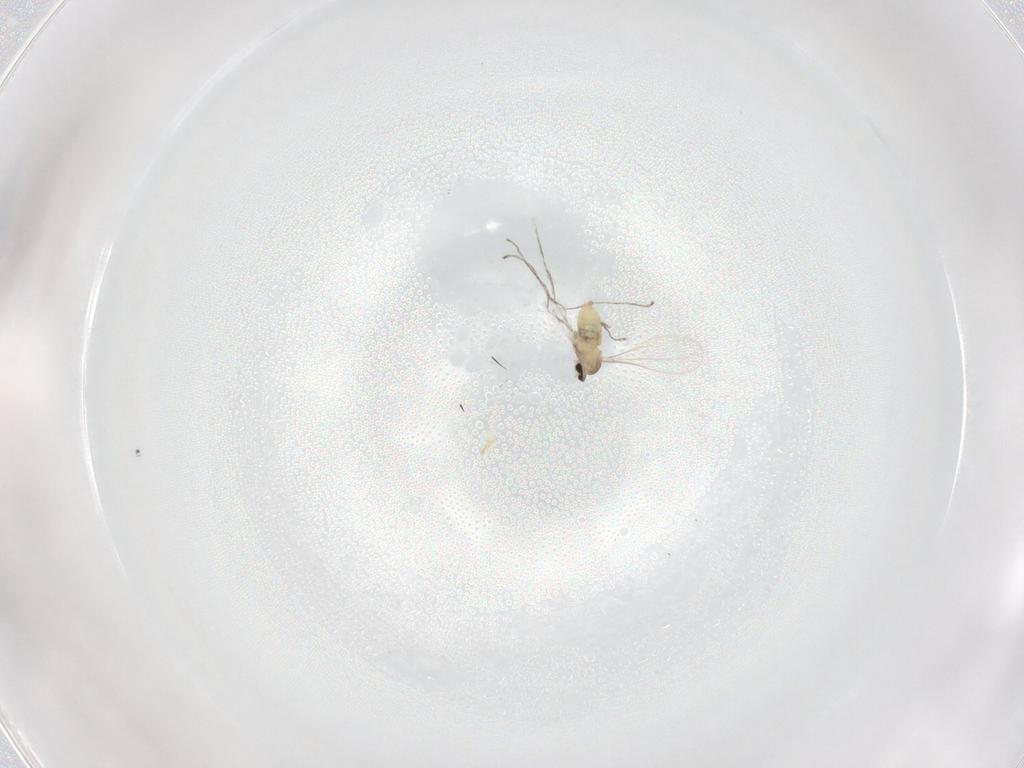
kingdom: Animalia
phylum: Arthropoda
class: Insecta
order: Diptera
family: Cecidomyiidae
